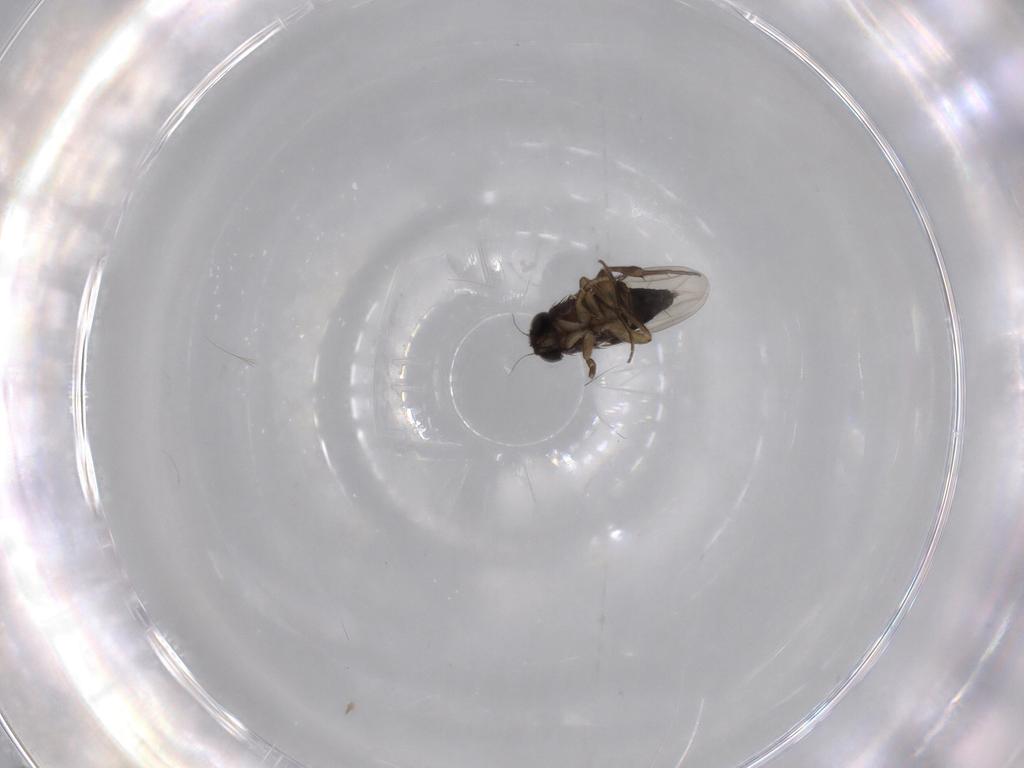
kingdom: Animalia
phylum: Arthropoda
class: Insecta
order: Diptera
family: Phoridae
